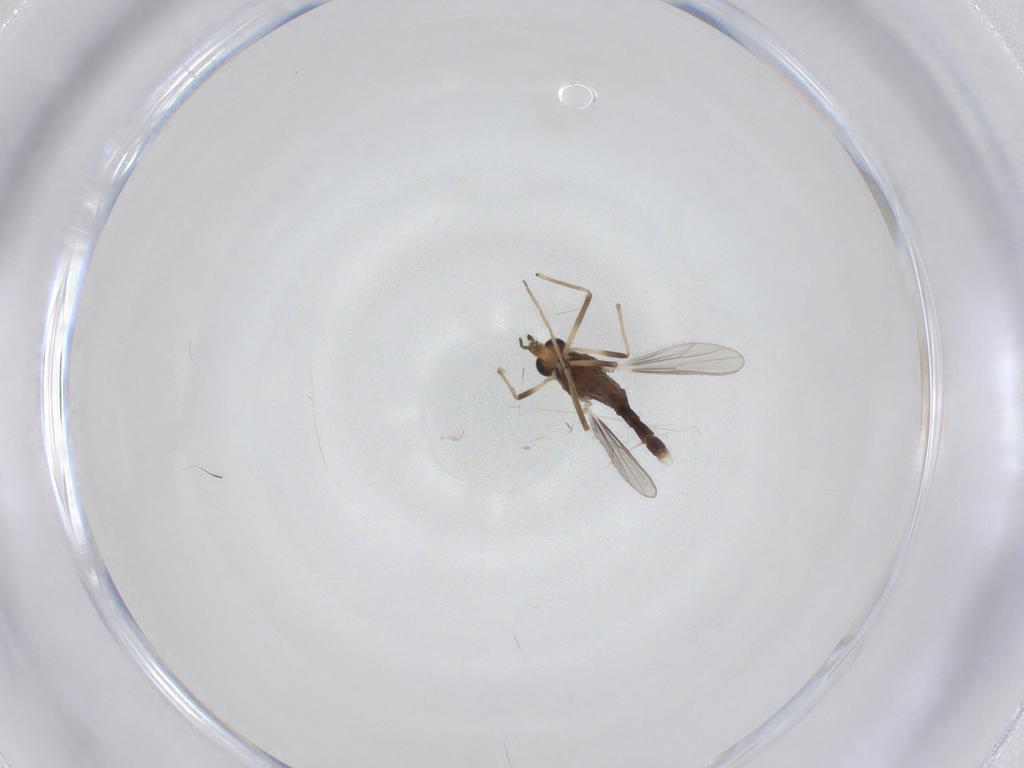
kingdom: Animalia
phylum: Arthropoda
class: Insecta
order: Diptera
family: Chironomidae
